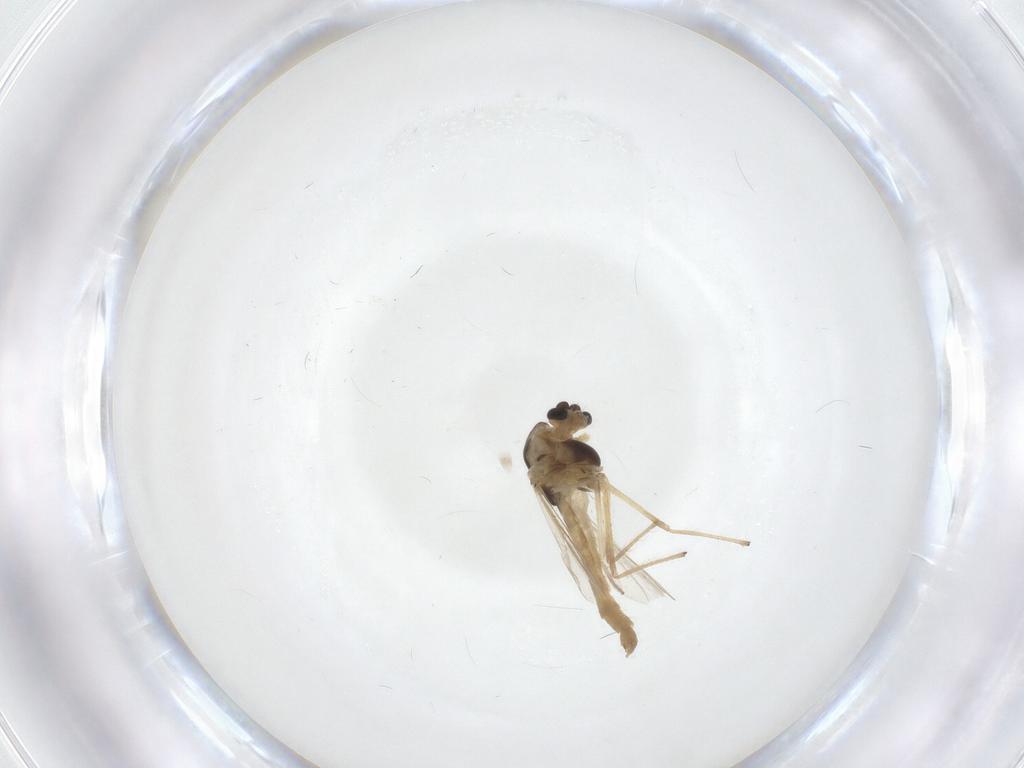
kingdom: Animalia
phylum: Arthropoda
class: Insecta
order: Diptera
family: Chironomidae
